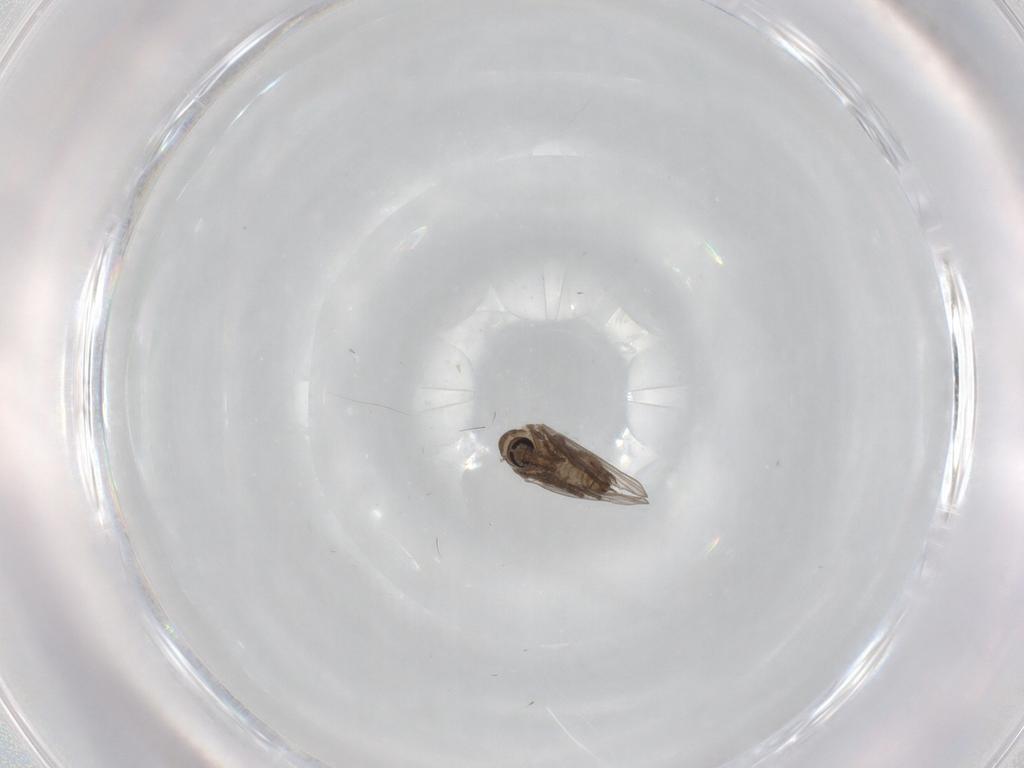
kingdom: Animalia
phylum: Arthropoda
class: Insecta
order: Diptera
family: Psychodidae
